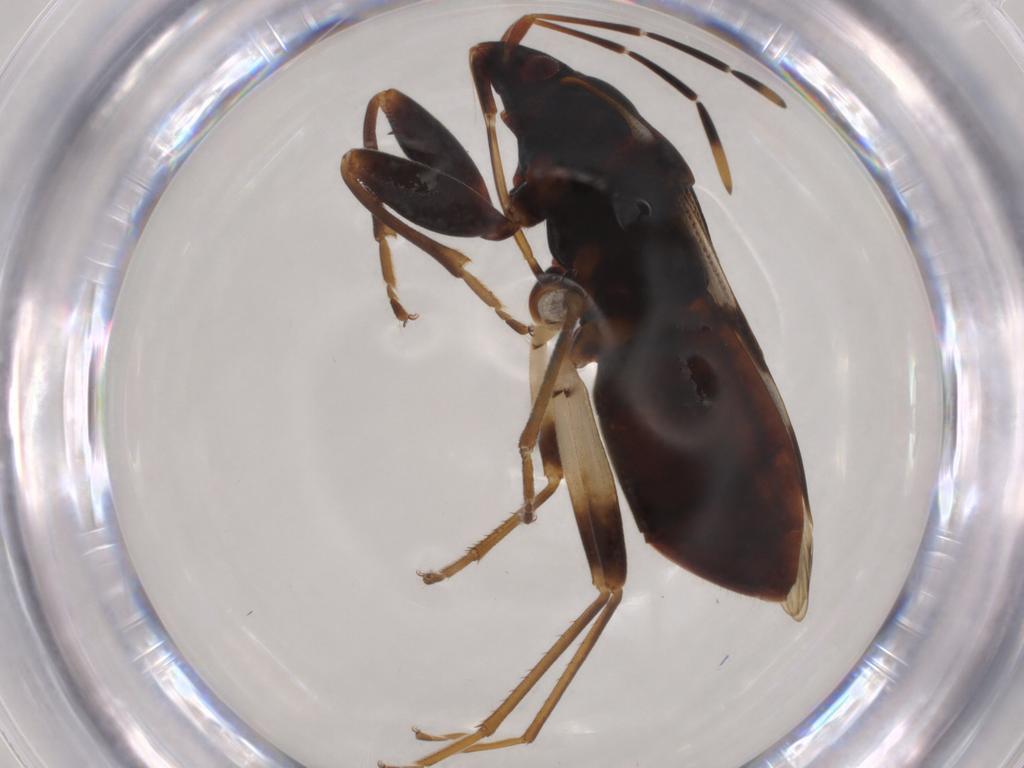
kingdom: Animalia
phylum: Arthropoda
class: Insecta
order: Hemiptera
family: Rhyparochromidae
